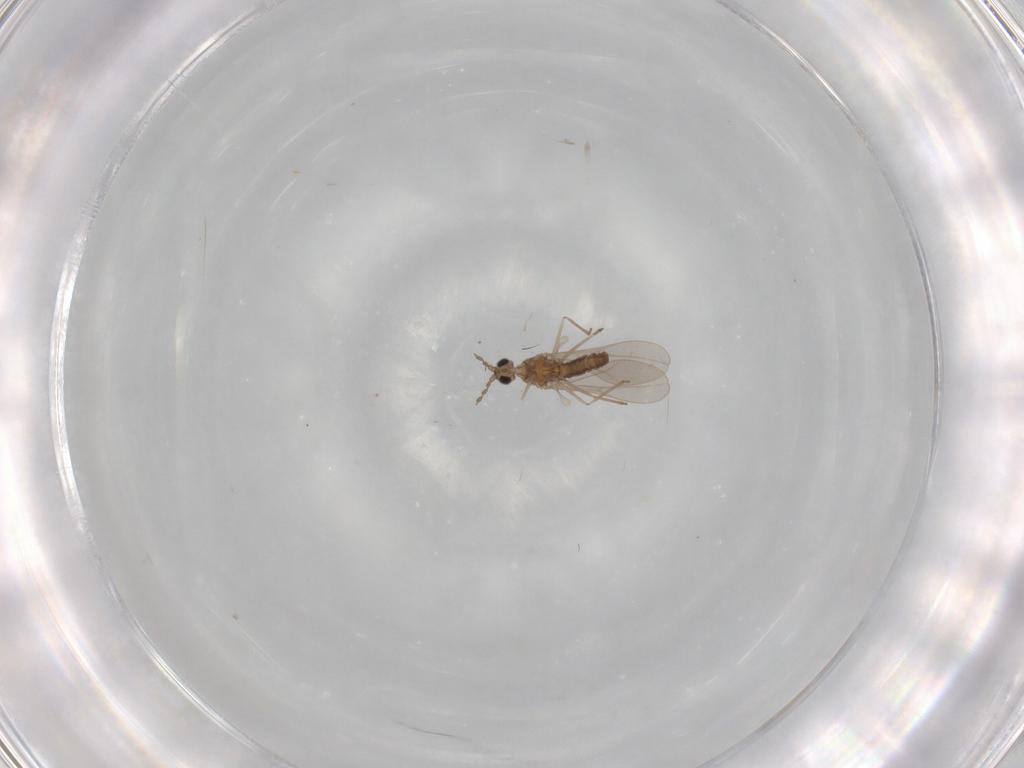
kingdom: Animalia
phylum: Arthropoda
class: Insecta
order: Diptera
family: Cecidomyiidae
